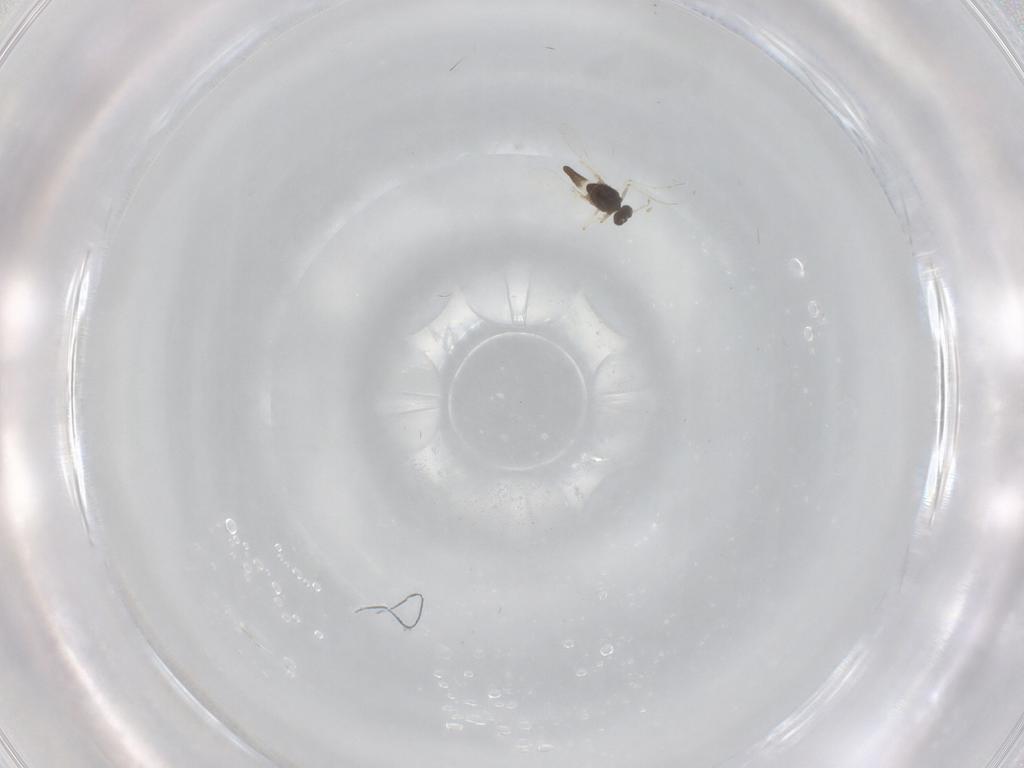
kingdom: Animalia
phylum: Arthropoda
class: Insecta
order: Diptera
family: Chironomidae
